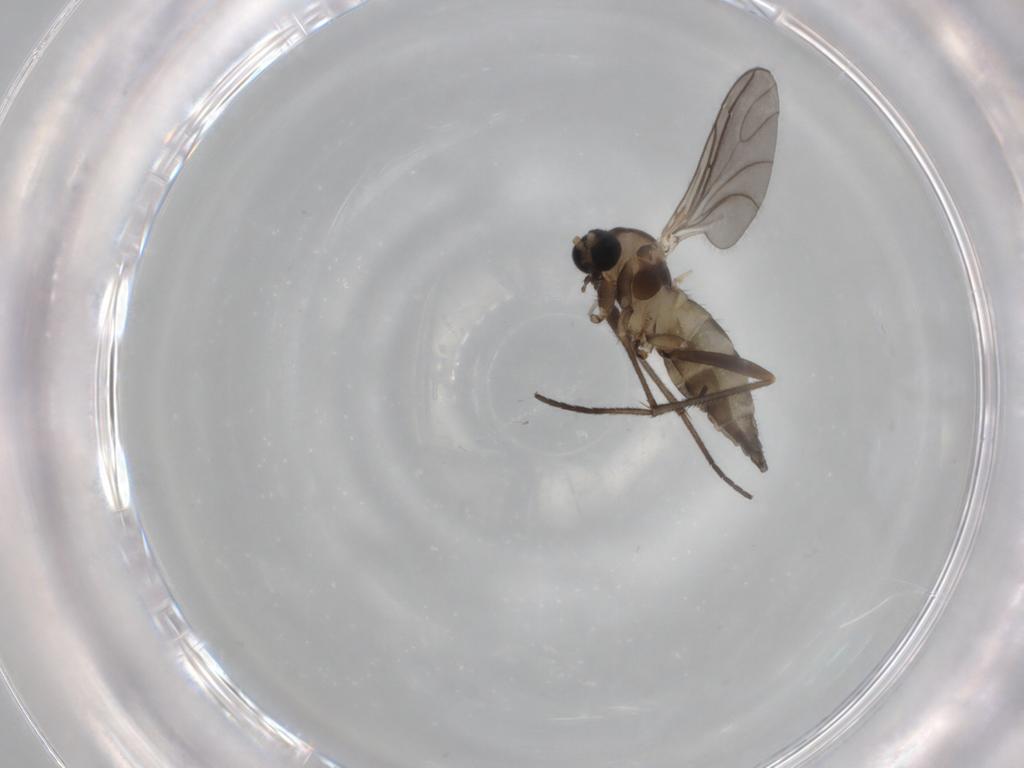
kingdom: Animalia
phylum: Arthropoda
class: Insecta
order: Diptera
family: Sciaridae
